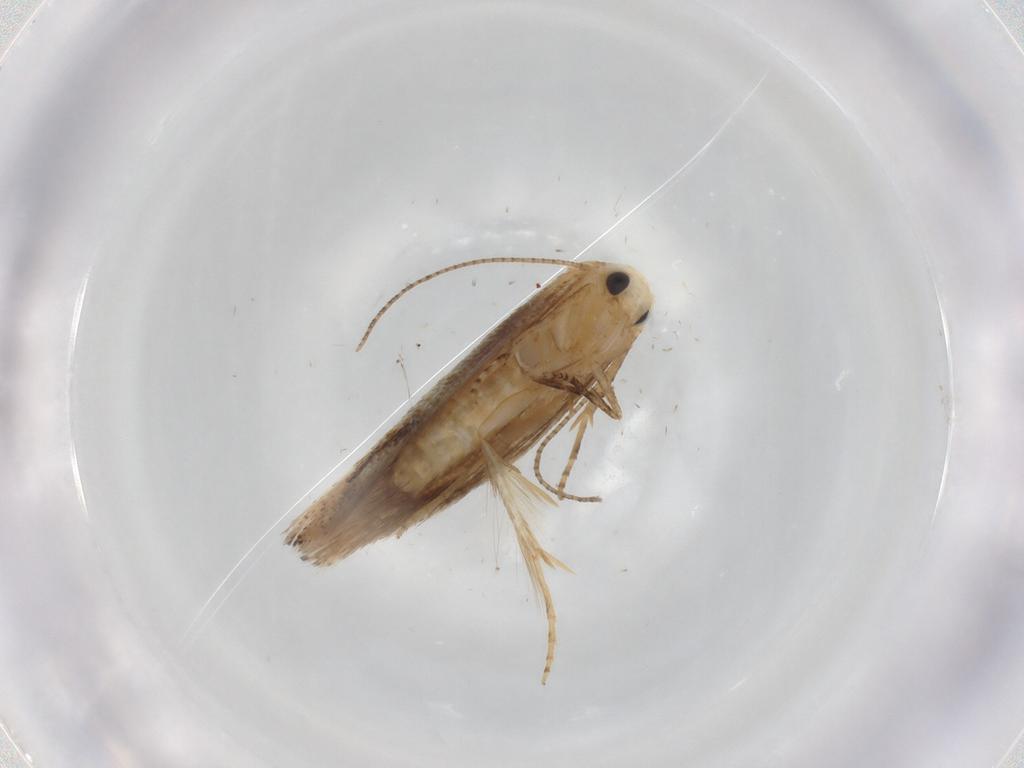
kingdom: Animalia
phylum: Arthropoda
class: Insecta
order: Lepidoptera
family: Bucculatricidae
